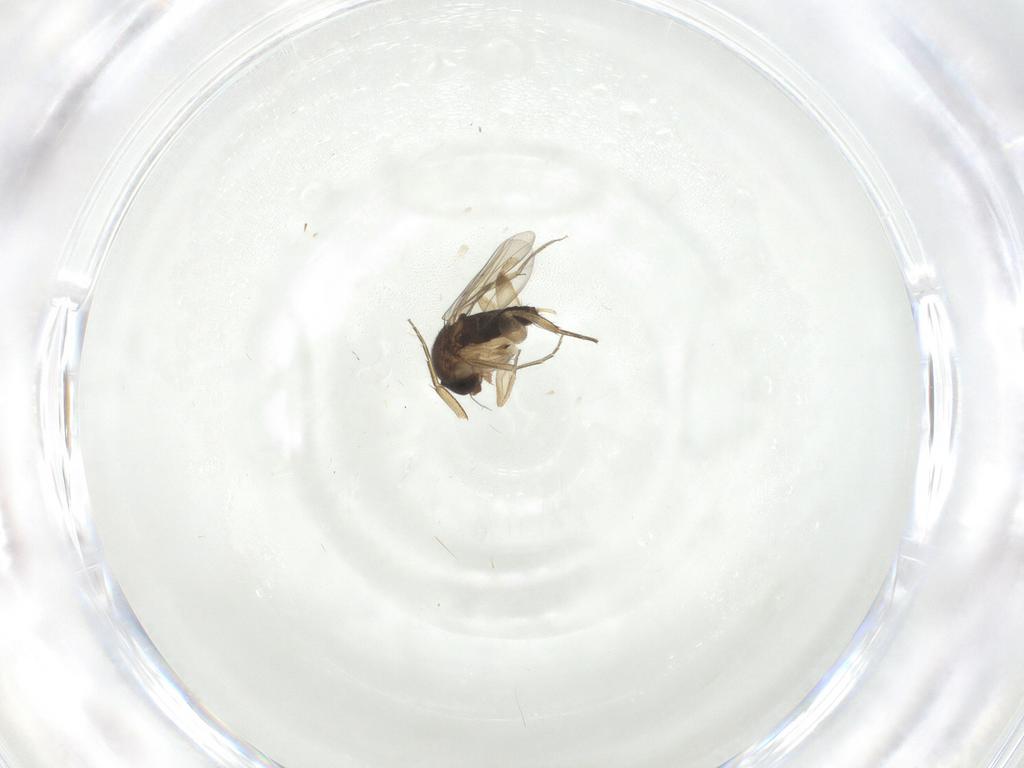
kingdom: Animalia
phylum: Arthropoda
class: Insecta
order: Diptera
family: Phoridae
